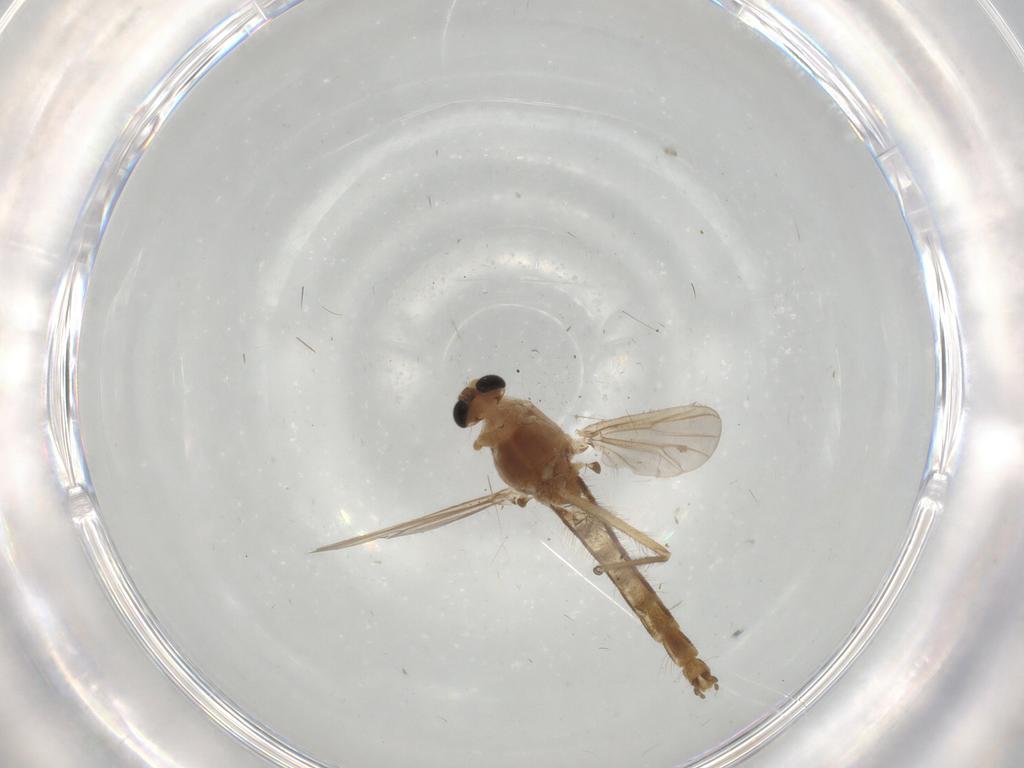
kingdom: Animalia
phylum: Arthropoda
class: Insecta
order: Diptera
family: Chironomidae
